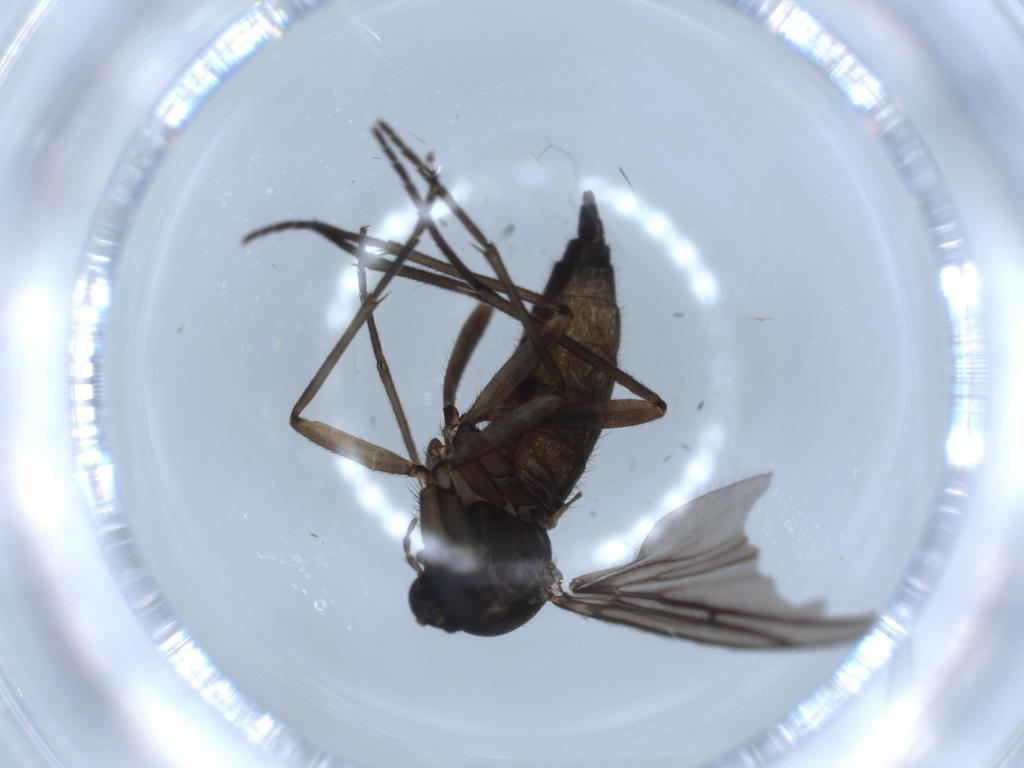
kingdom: Animalia
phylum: Arthropoda
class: Insecta
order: Diptera
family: Sciaridae
